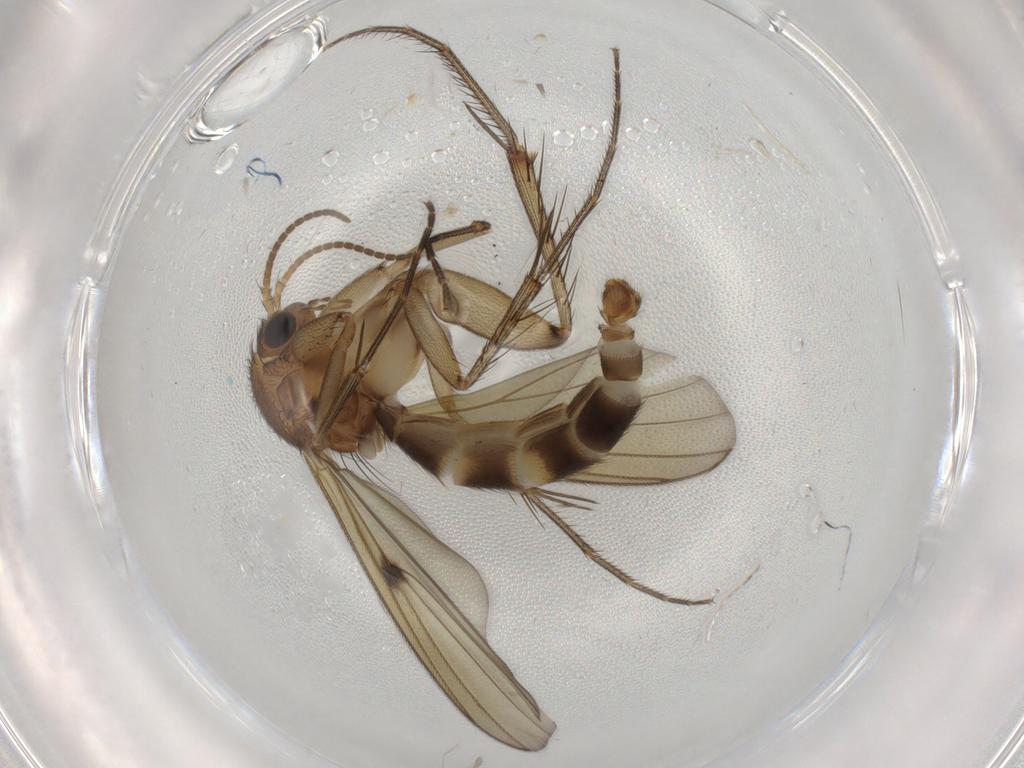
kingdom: Animalia
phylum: Arthropoda
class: Insecta
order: Diptera
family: Mycetophilidae
